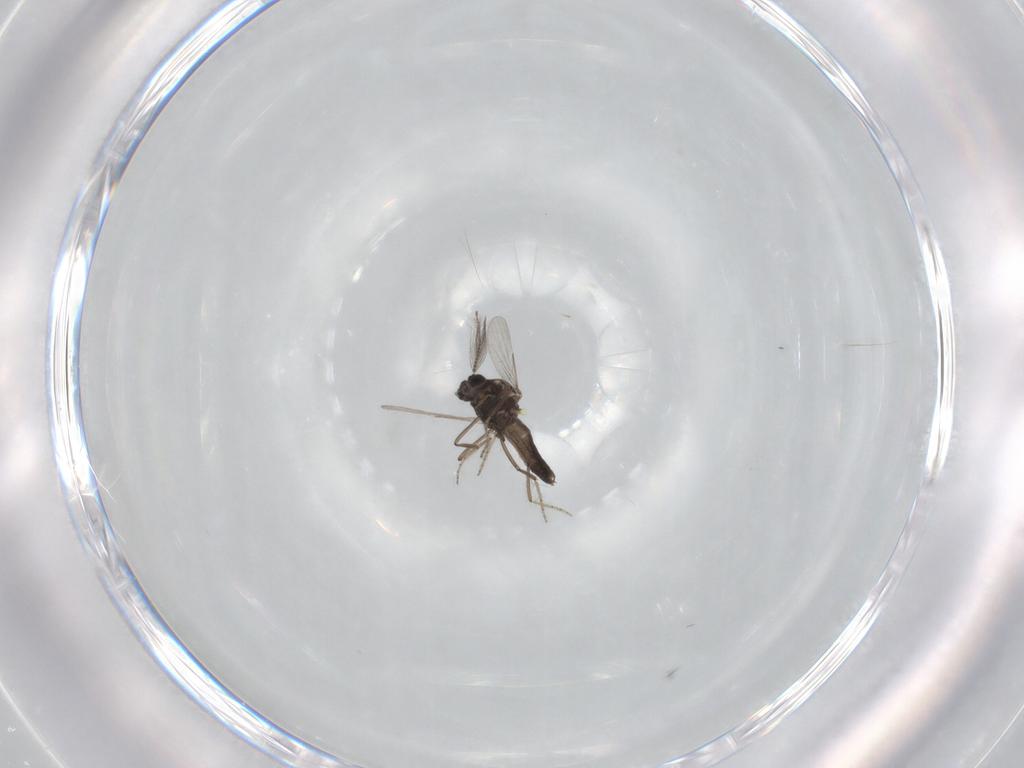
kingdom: Animalia
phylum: Arthropoda
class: Insecta
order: Diptera
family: Ceratopogonidae
